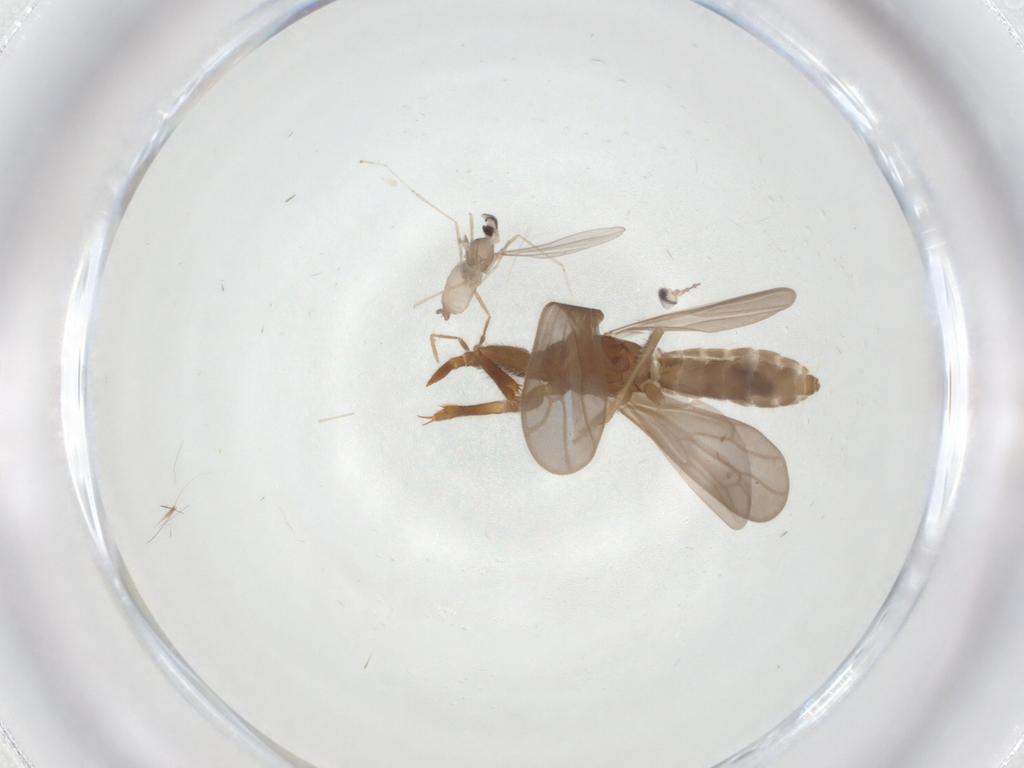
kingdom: Animalia
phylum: Arthropoda
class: Insecta
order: Diptera
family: Cecidomyiidae
